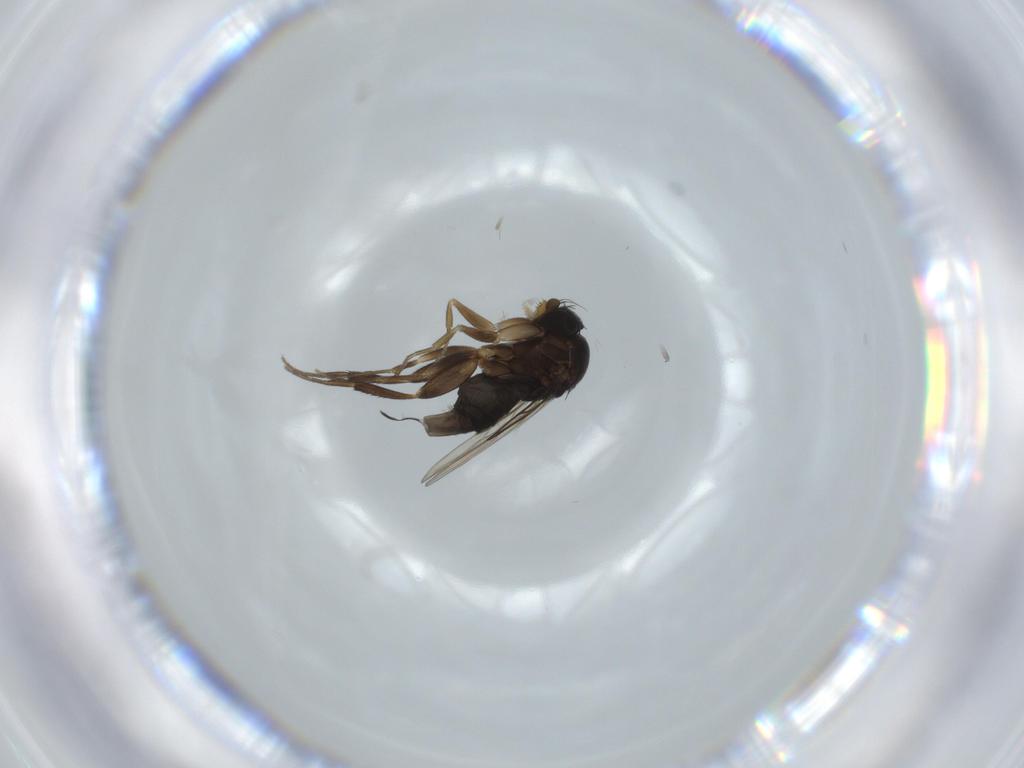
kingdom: Animalia
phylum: Arthropoda
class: Insecta
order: Diptera
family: Phoridae
